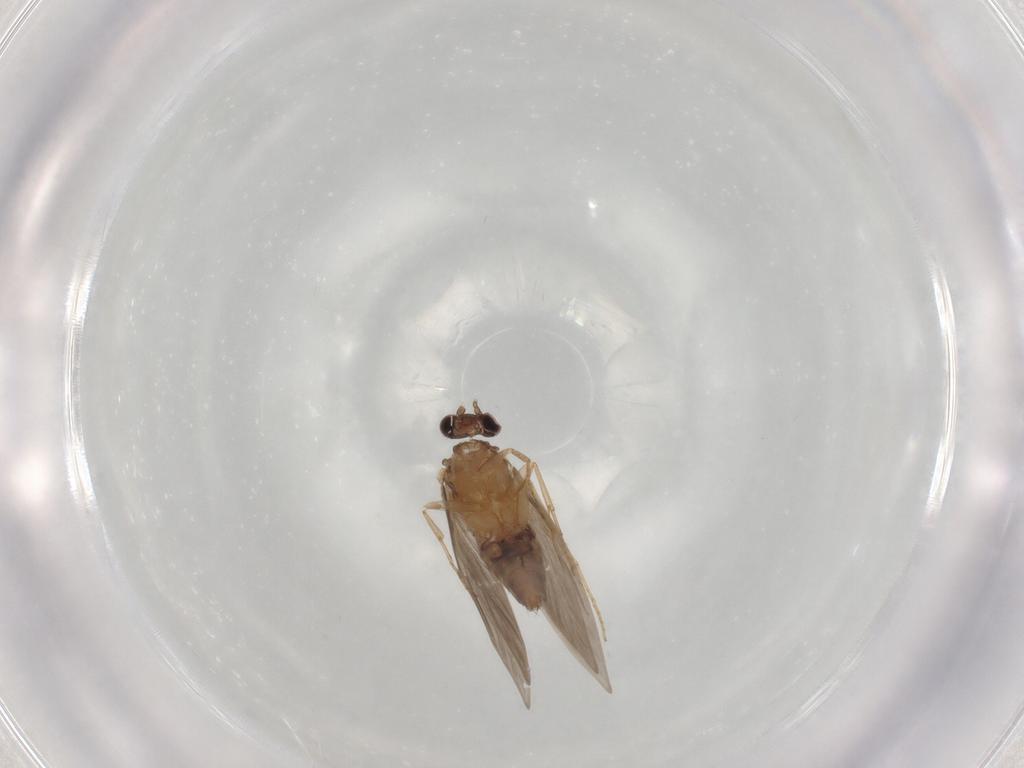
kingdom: Animalia
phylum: Arthropoda
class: Insecta
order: Trichoptera
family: Hydroptilidae
